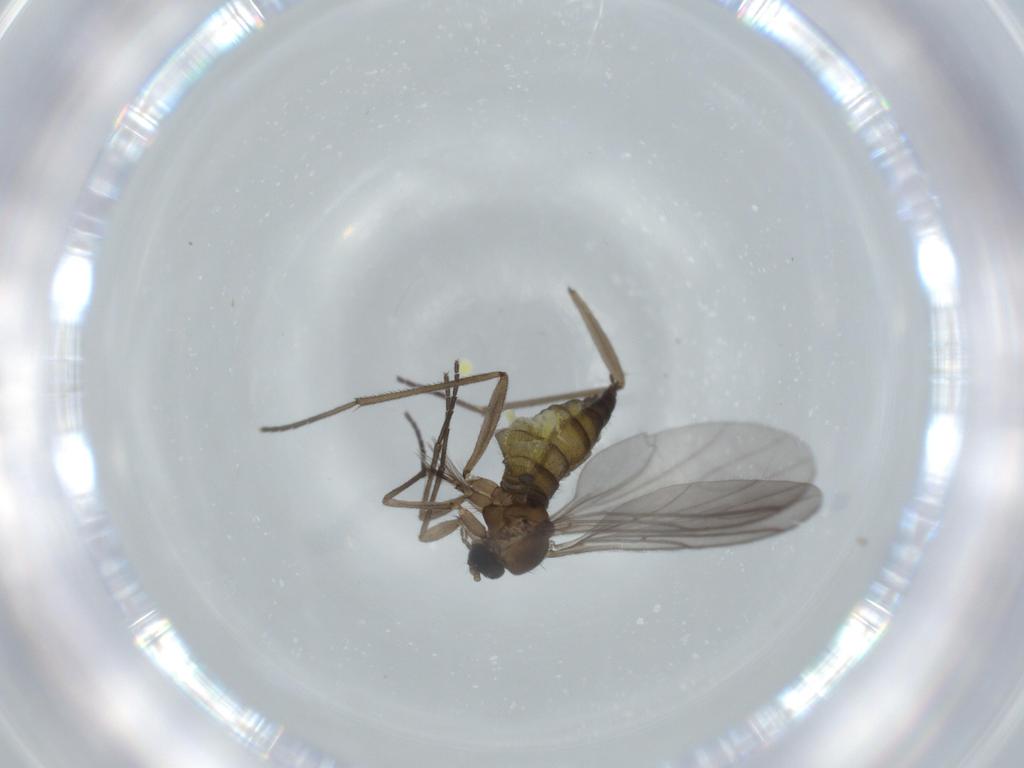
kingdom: Animalia
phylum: Arthropoda
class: Insecta
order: Diptera
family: Sciaridae
